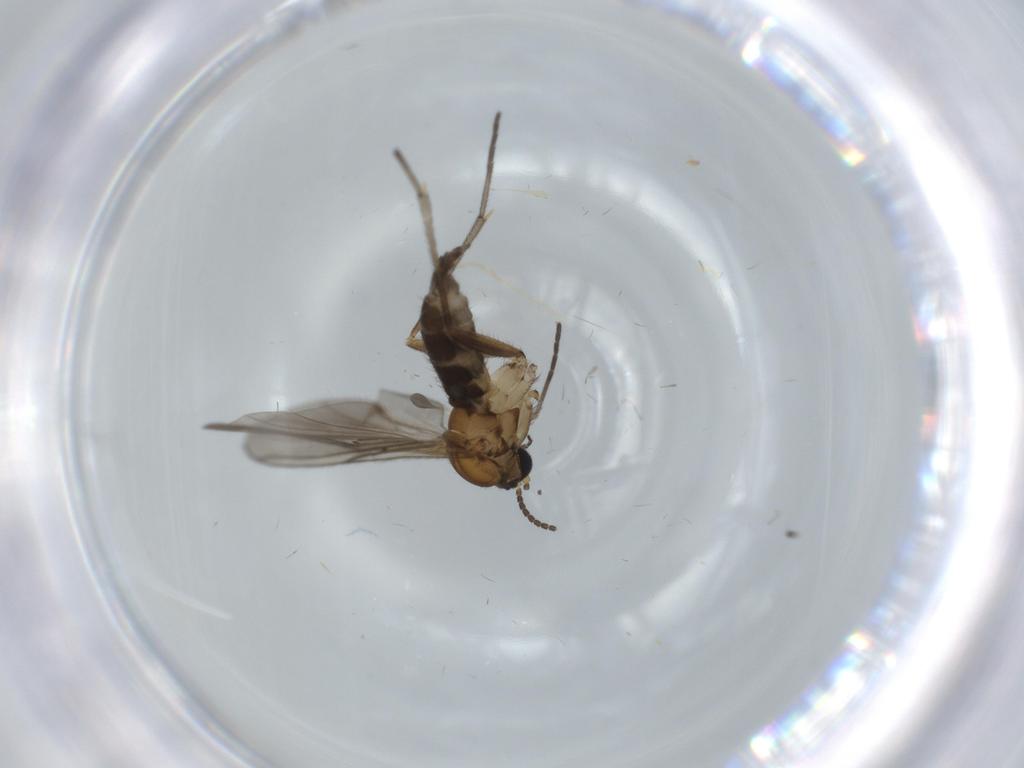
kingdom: Animalia
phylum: Arthropoda
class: Insecta
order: Diptera
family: Sciaridae
